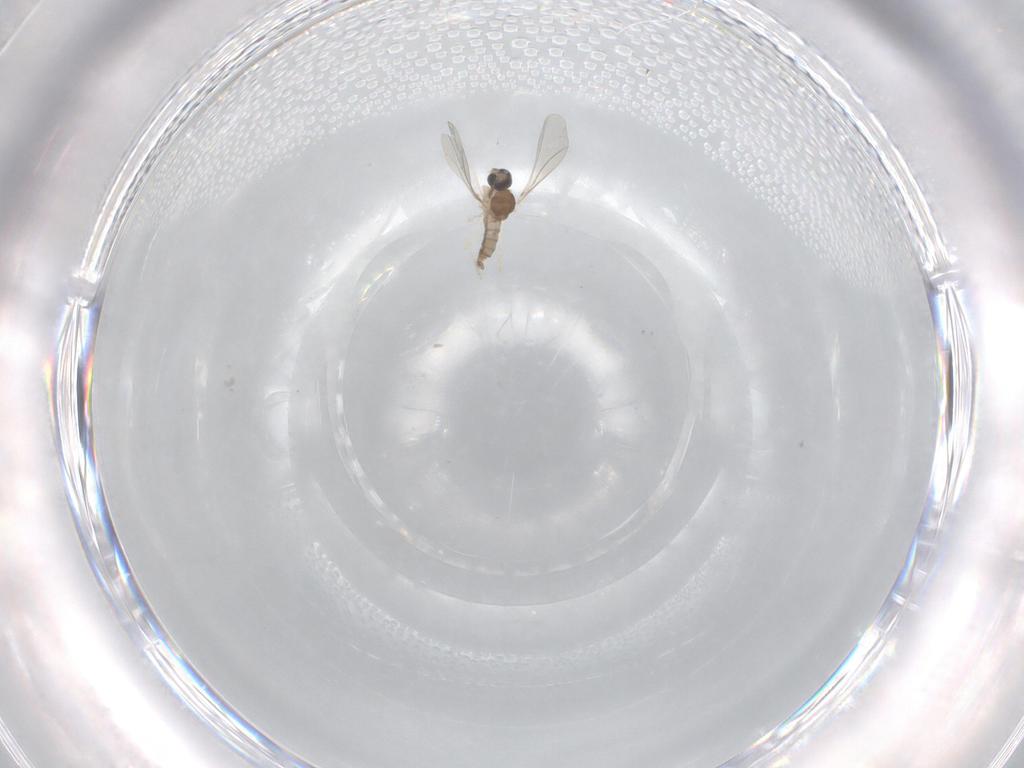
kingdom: Animalia
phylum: Arthropoda
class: Insecta
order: Diptera
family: Cecidomyiidae
